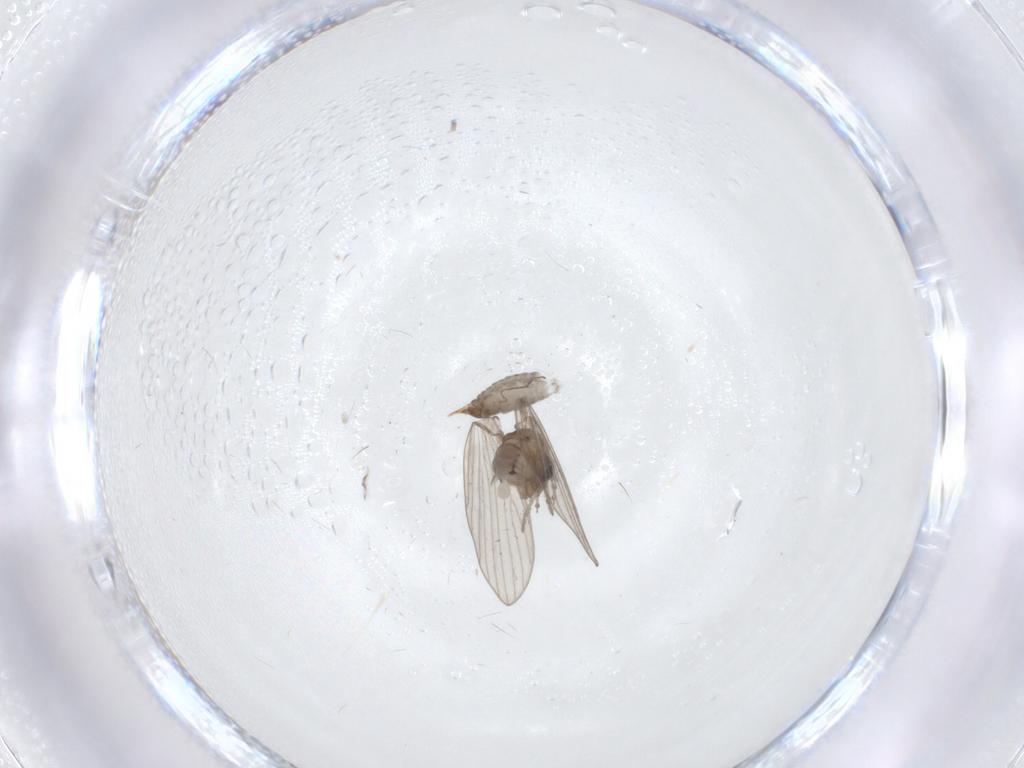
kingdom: Animalia
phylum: Arthropoda
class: Insecta
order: Diptera
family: Psychodidae
